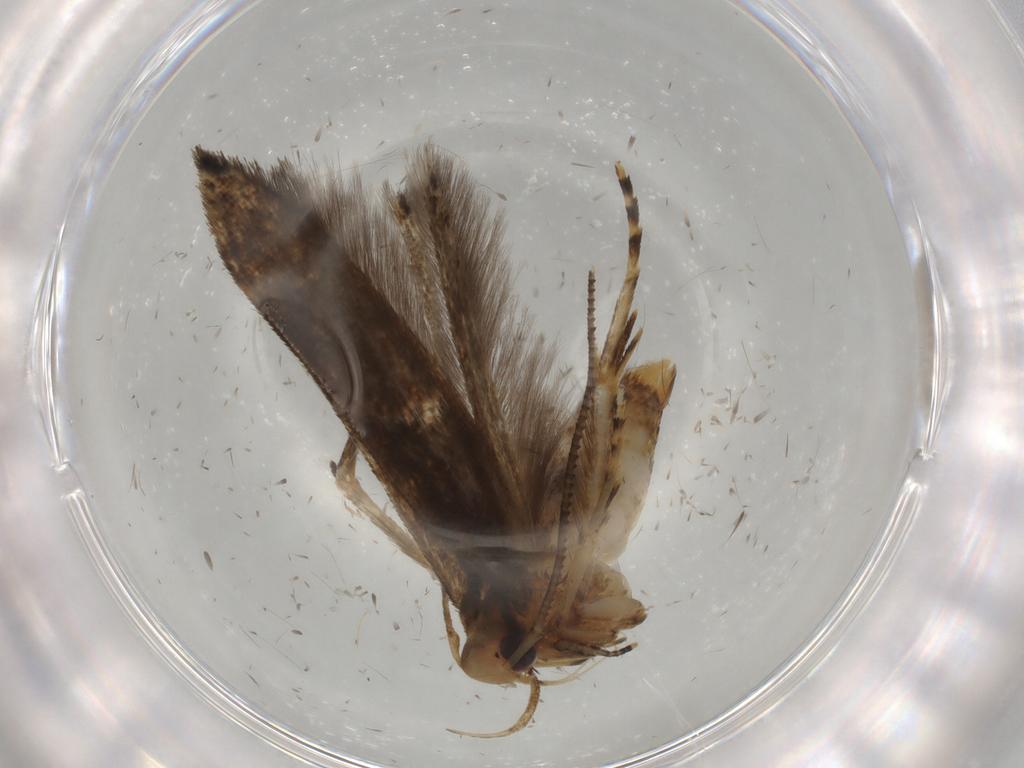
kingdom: Animalia
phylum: Arthropoda
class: Insecta
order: Lepidoptera
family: Cosmopterigidae
